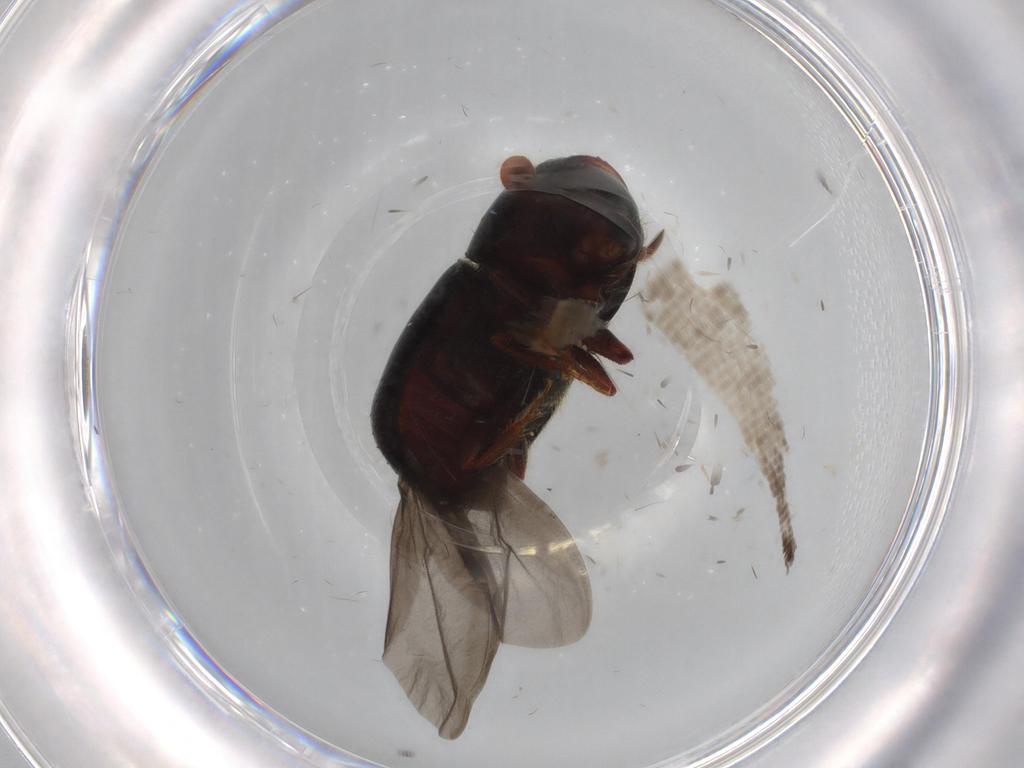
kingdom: Animalia
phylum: Arthropoda
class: Insecta
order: Coleoptera
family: Curculionidae
